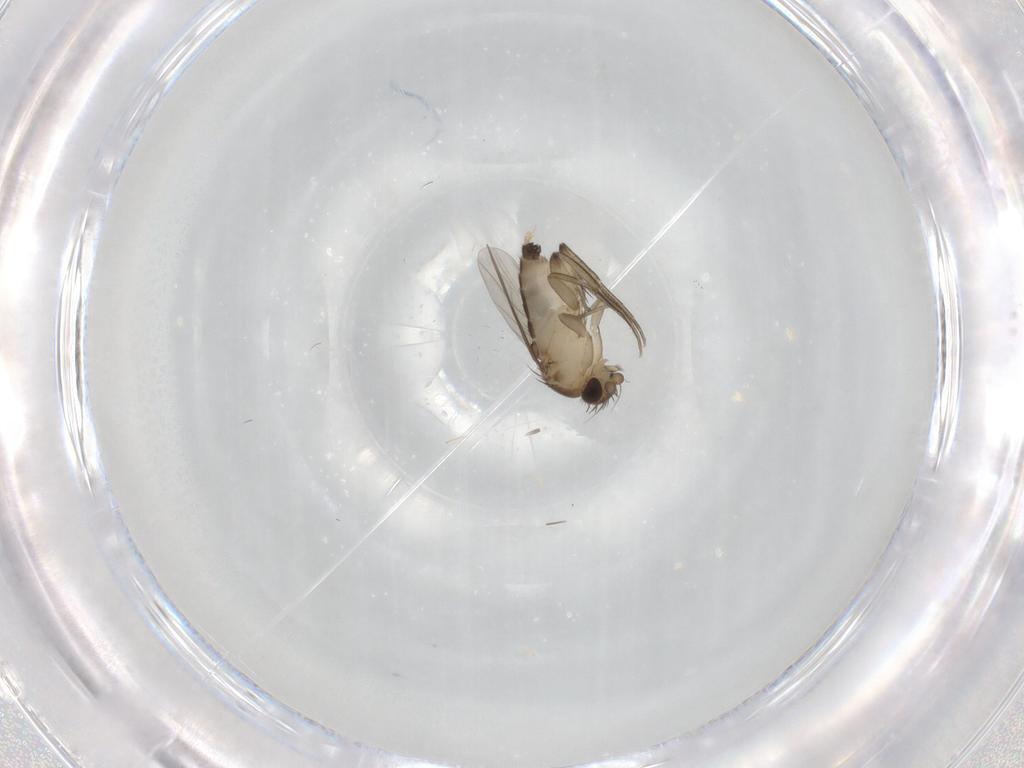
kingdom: Animalia
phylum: Arthropoda
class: Insecta
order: Diptera
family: Phoridae
